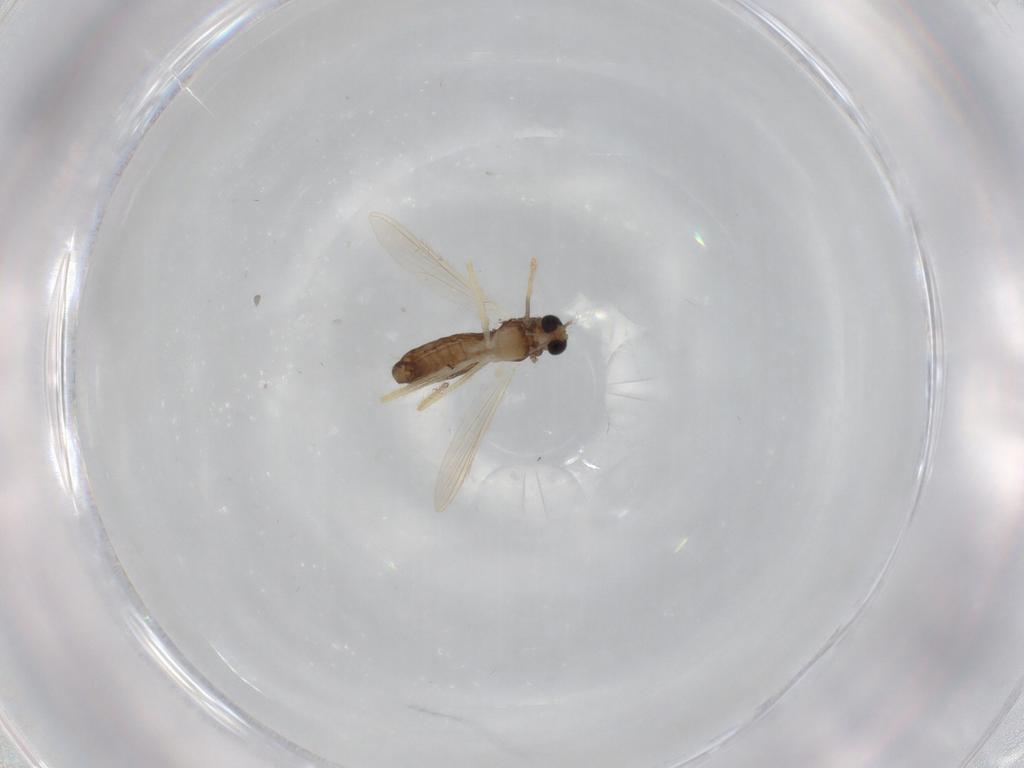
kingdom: Animalia
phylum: Arthropoda
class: Insecta
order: Diptera
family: Chironomidae
